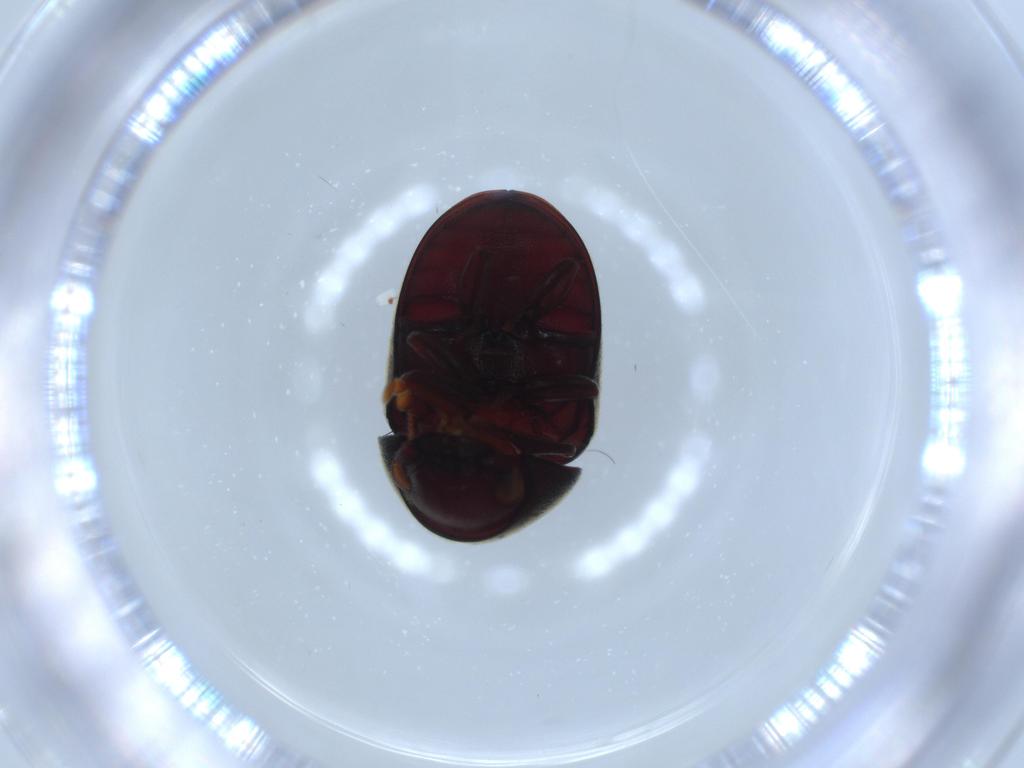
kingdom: Animalia
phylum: Arthropoda
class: Insecta
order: Coleoptera
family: Ptinidae
